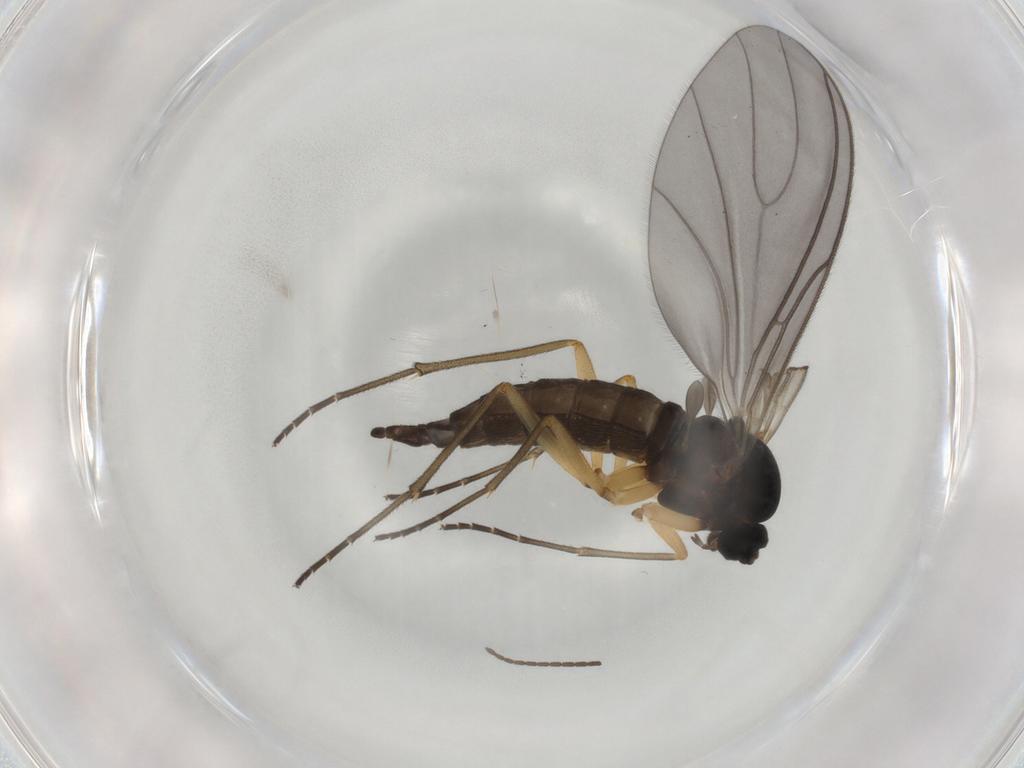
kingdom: Animalia
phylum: Arthropoda
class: Insecta
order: Diptera
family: Sciaridae
